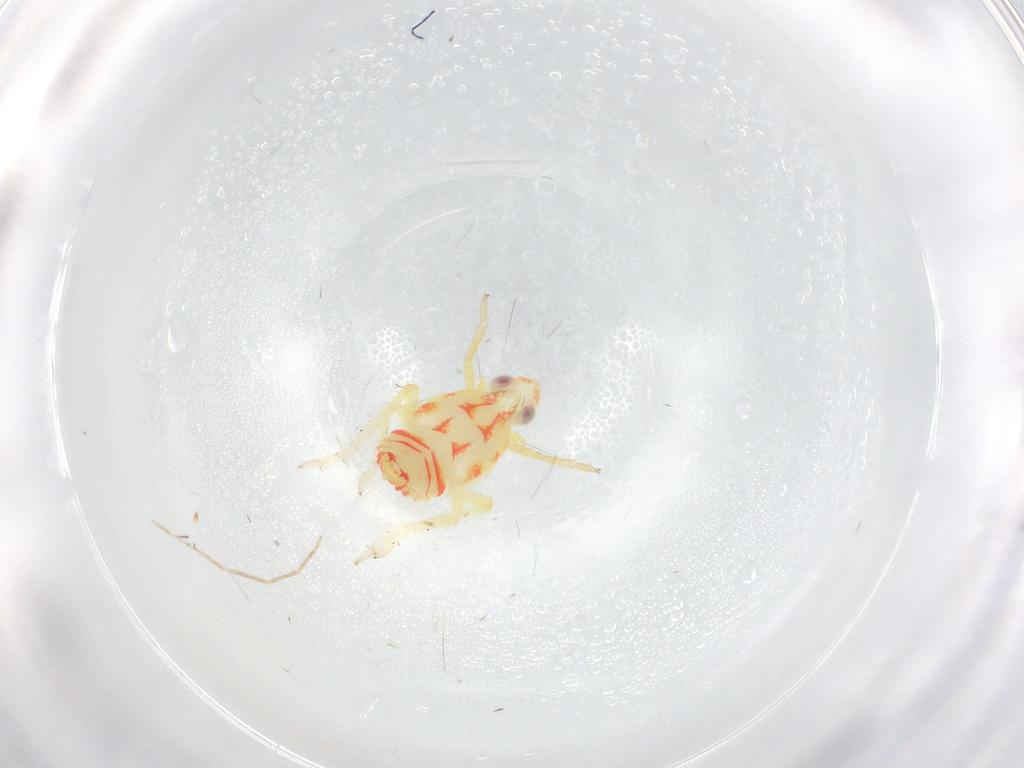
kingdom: Animalia
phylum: Arthropoda
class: Insecta
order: Hemiptera
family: Tropiduchidae
